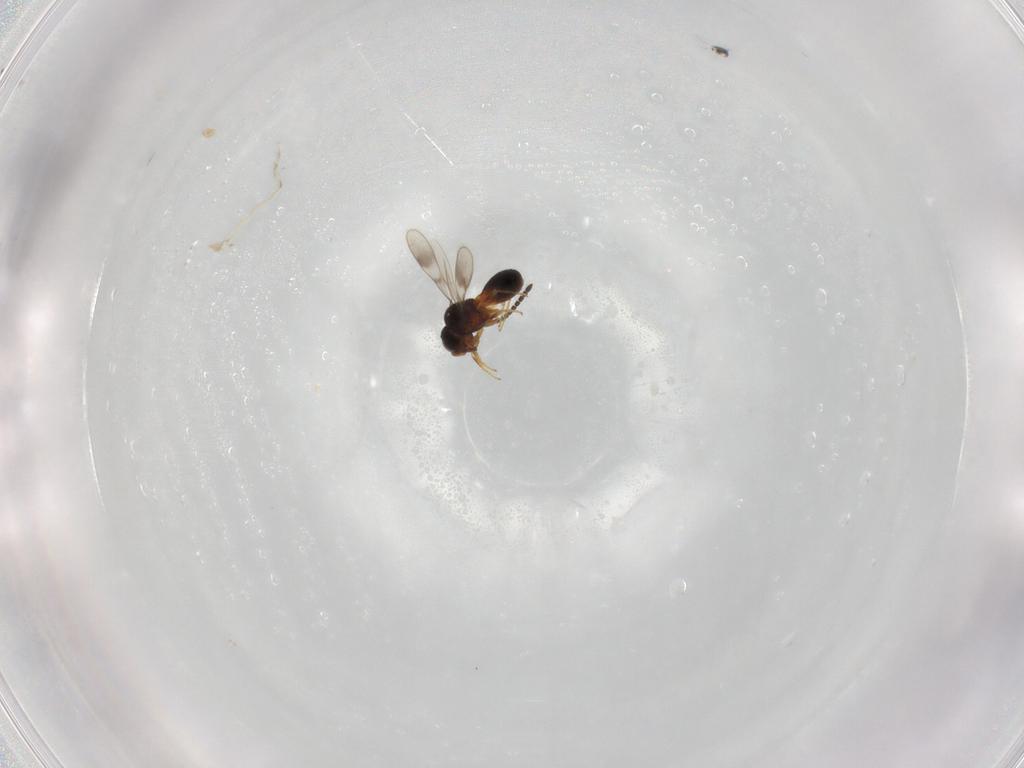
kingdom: Animalia
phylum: Arthropoda
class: Insecta
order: Hymenoptera
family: Scelionidae
